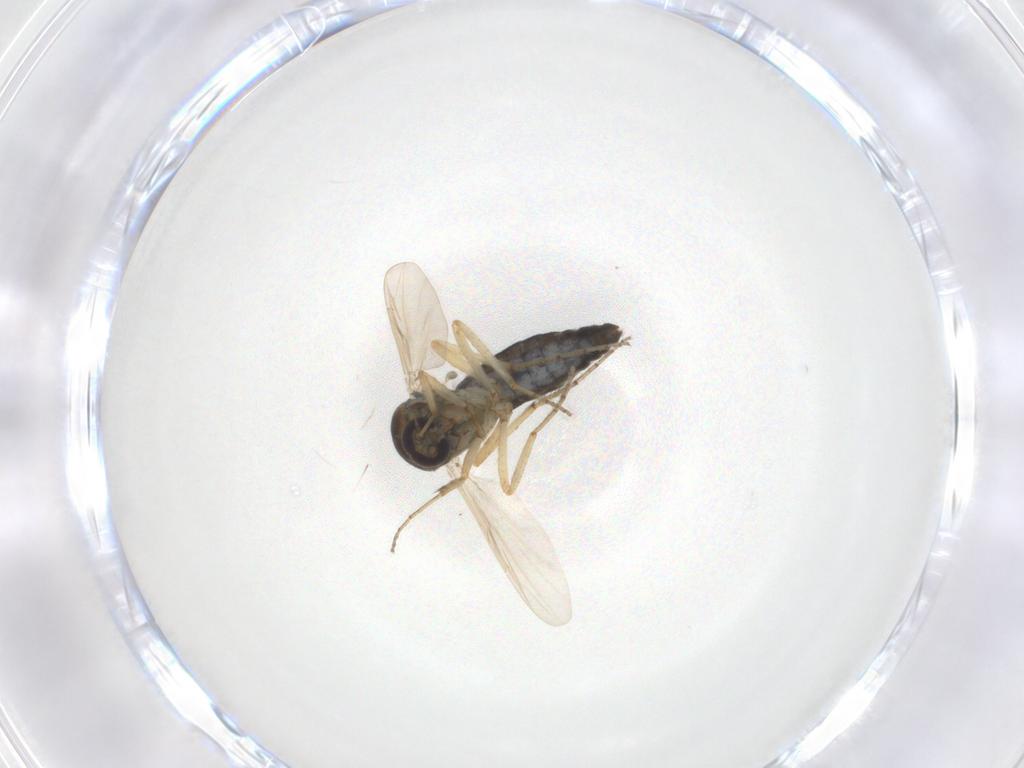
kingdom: Animalia
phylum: Arthropoda
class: Insecta
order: Diptera
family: Ceratopogonidae
